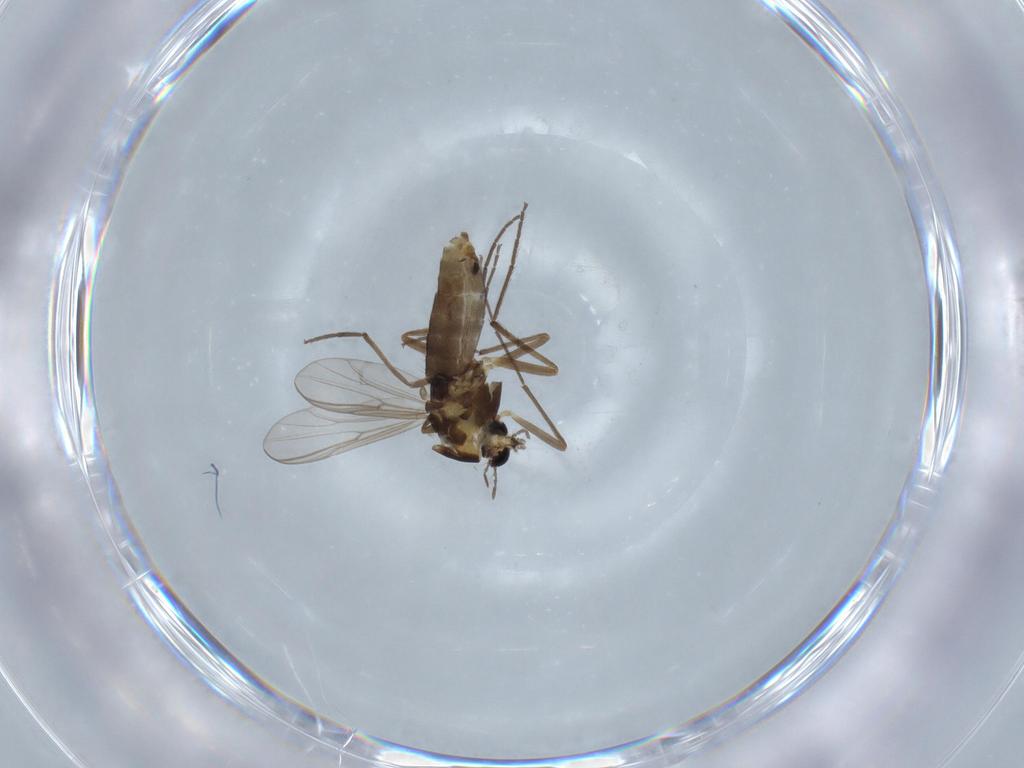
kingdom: Animalia
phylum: Arthropoda
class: Insecta
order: Diptera
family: Chironomidae
